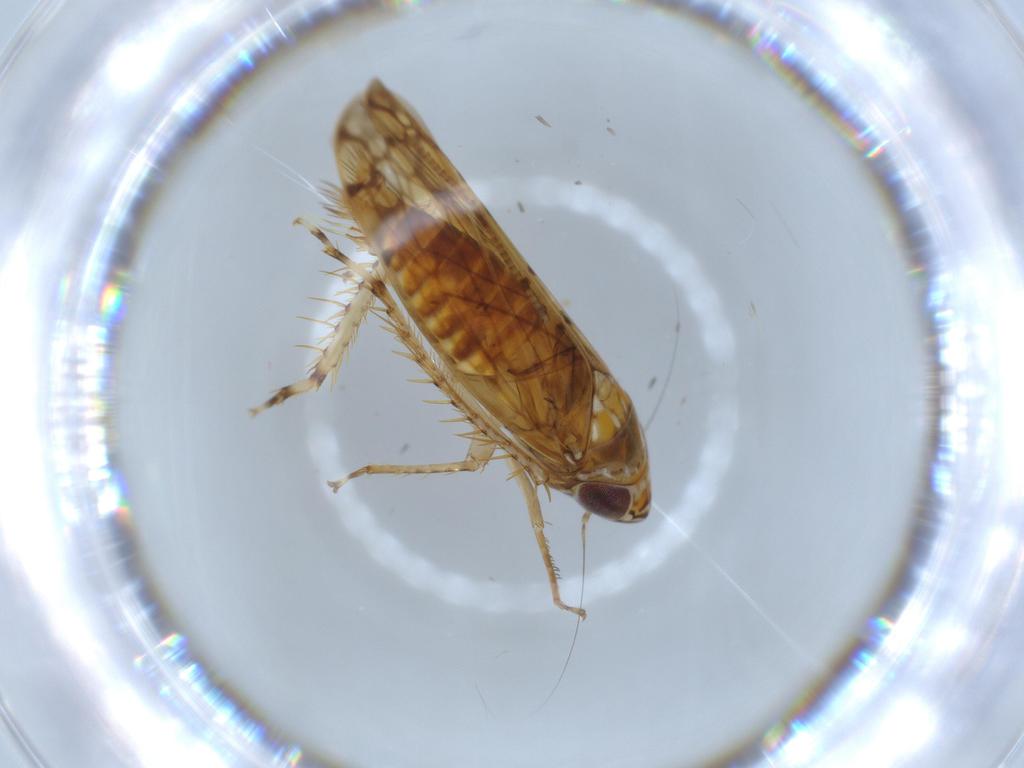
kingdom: Animalia
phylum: Arthropoda
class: Insecta
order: Hemiptera
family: Cicadellidae
